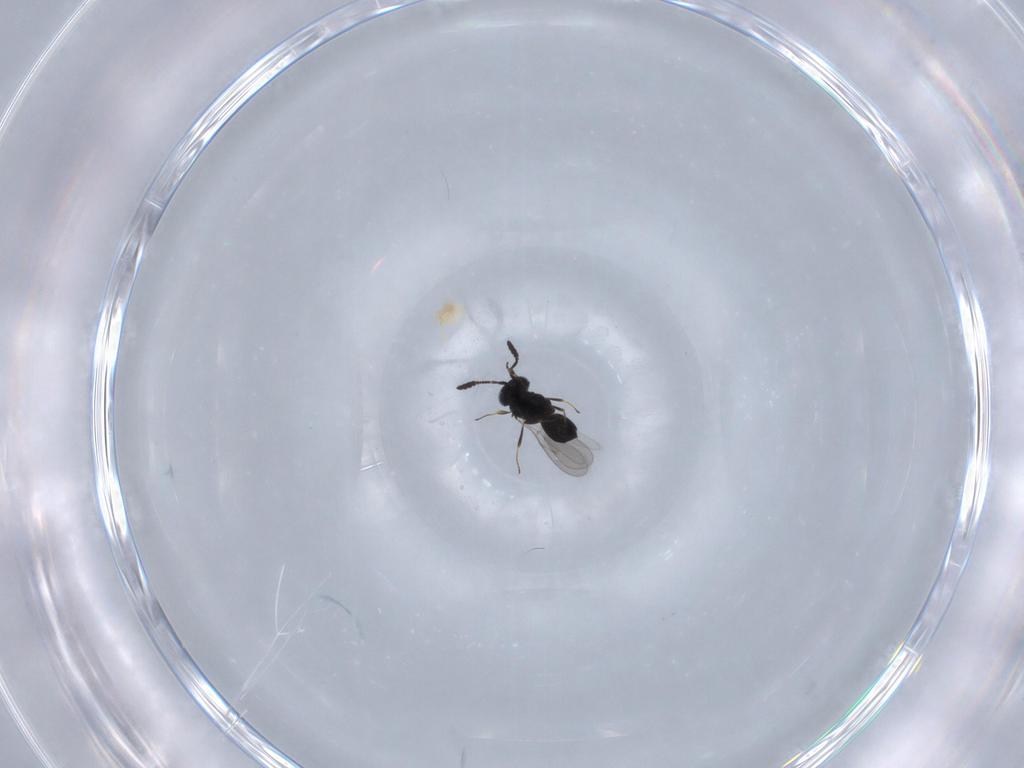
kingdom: Animalia
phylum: Arthropoda
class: Insecta
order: Hymenoptera
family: Scelionidae
